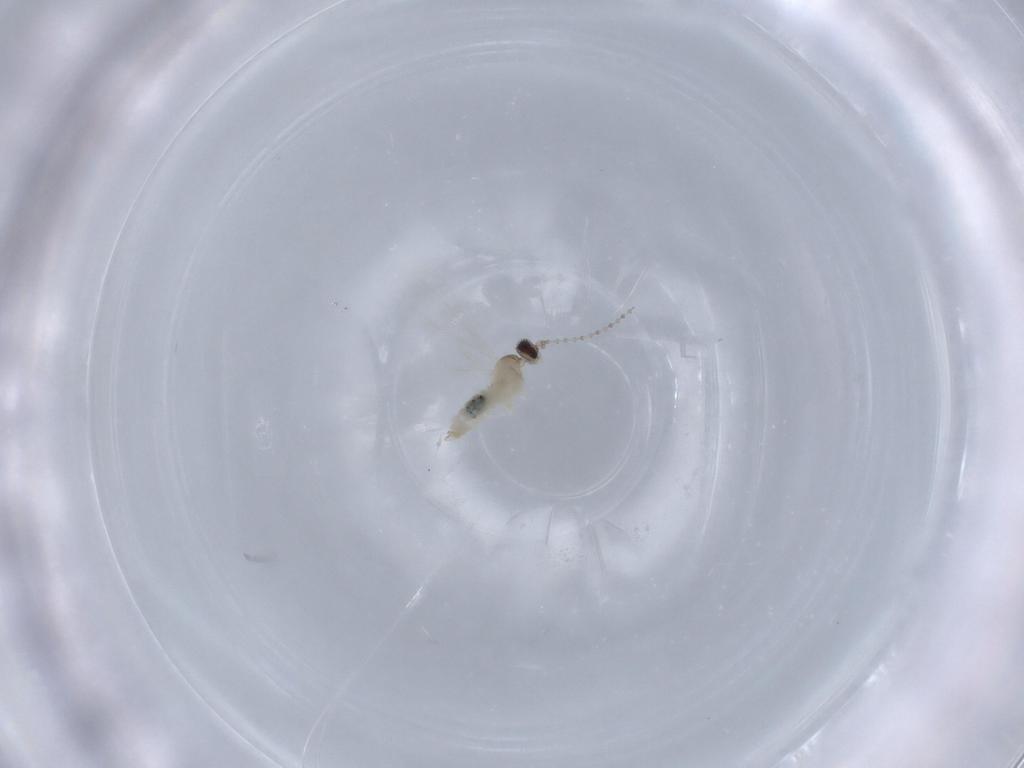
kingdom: Animalia
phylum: Arthropoda
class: Insecta
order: Diptera
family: Cecidomyiidae
